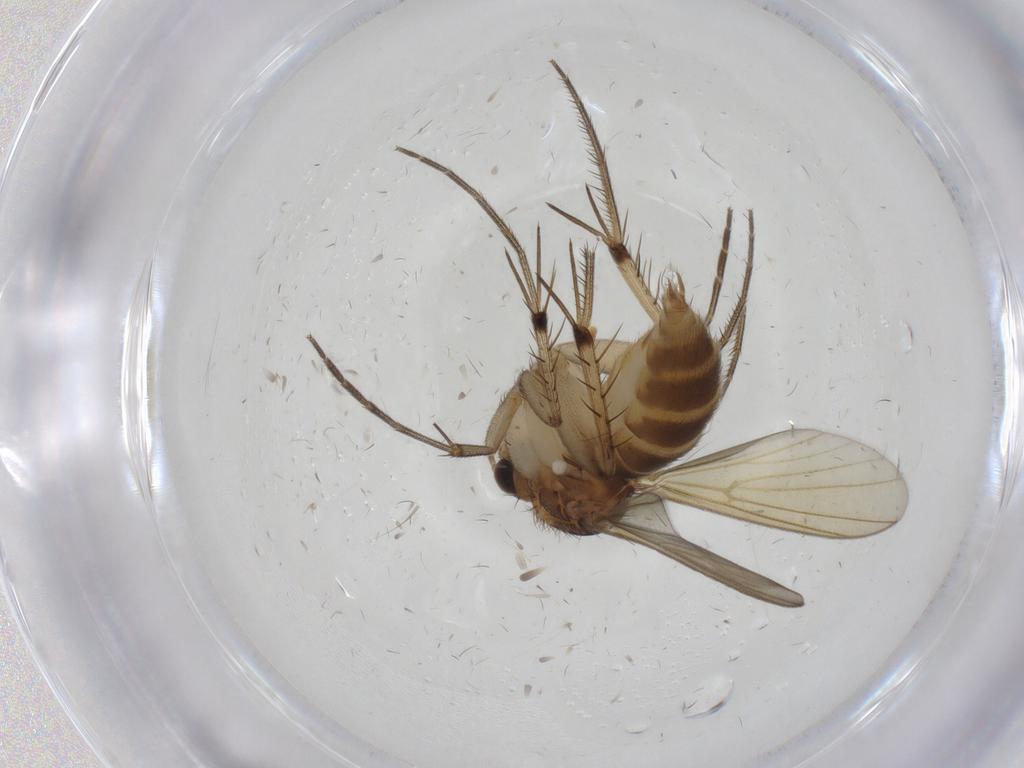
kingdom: Animalia
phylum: Arthropoda
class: Insecta
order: Diptera
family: Mycetophilidae
